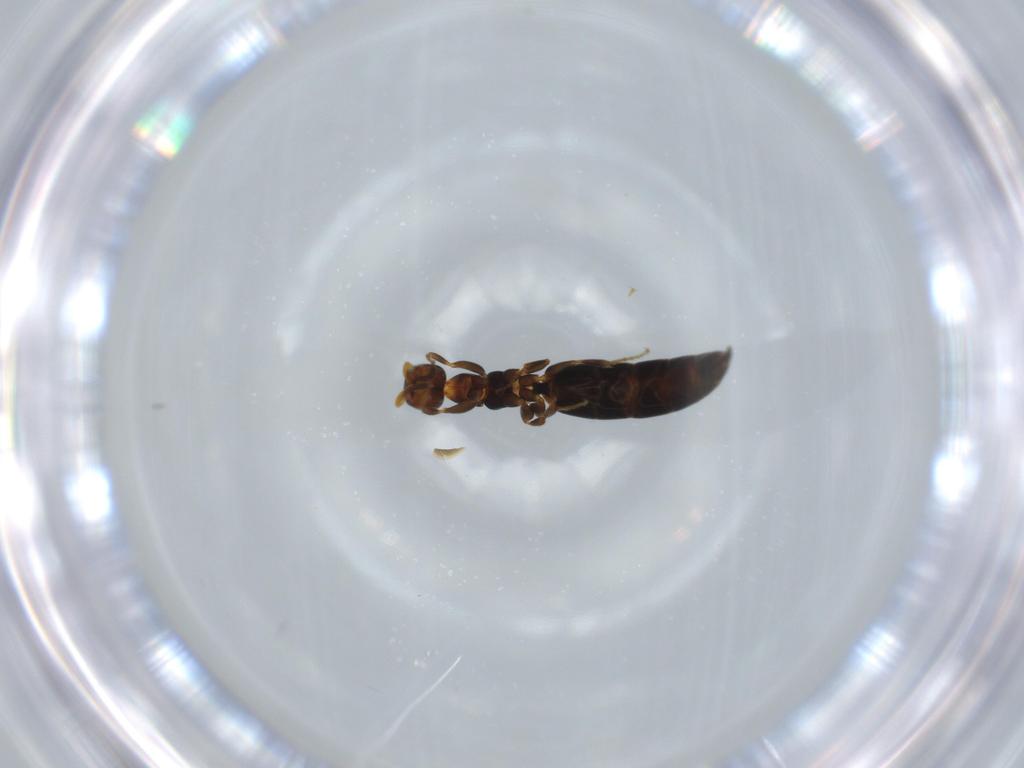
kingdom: Animalia
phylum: Arthropoda
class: Insecta
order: Hymenoptera
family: Bethylidae
